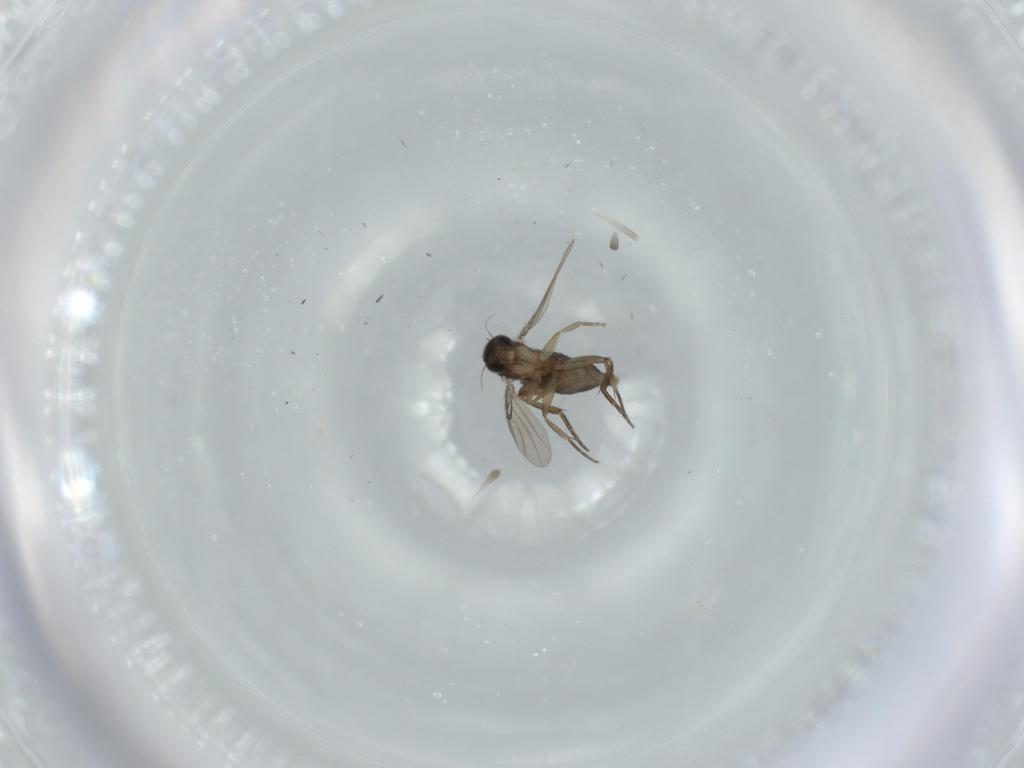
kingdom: Animalia
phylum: Arthropoda
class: Insecta
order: Diptera
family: Phoridae
